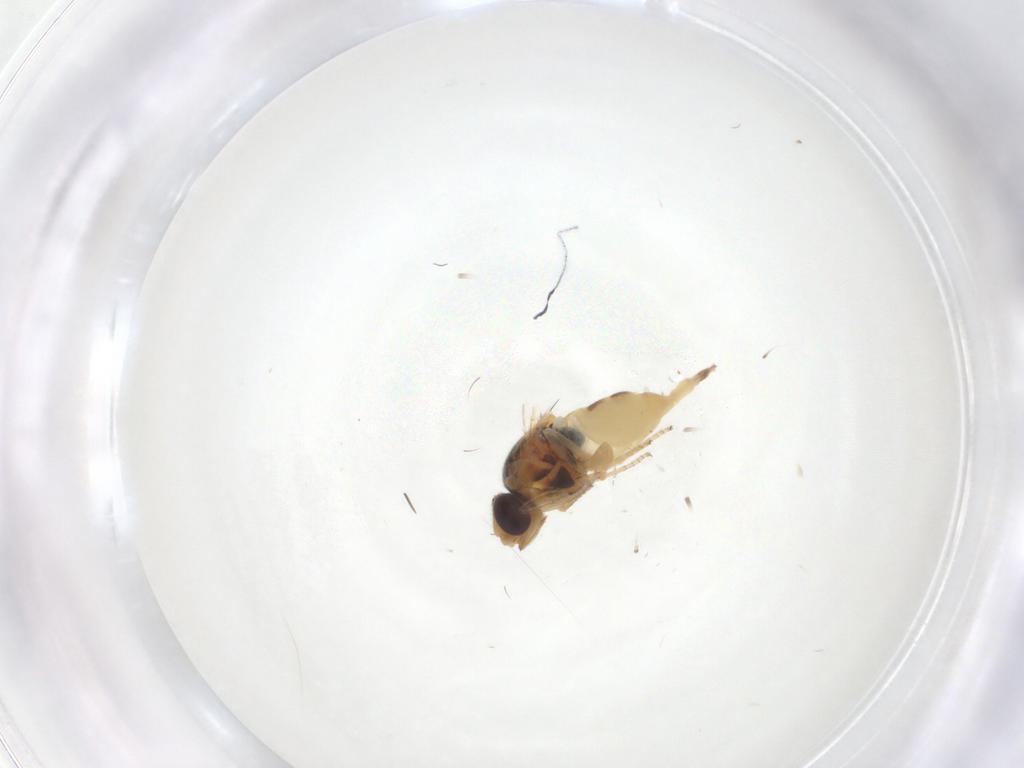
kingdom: Animalia
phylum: Arthropoda
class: Insecta
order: Diptera
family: Chloropidae
